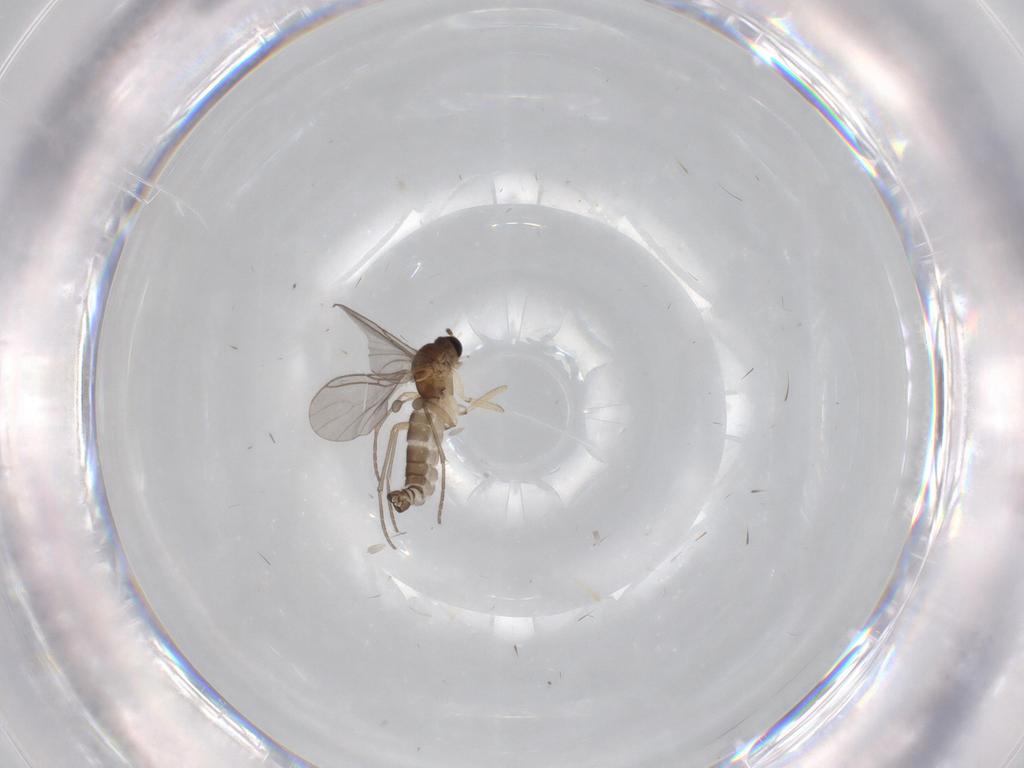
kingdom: Animalia
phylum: Arthropoda
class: Insecta
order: Diptera
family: Sciaridae
